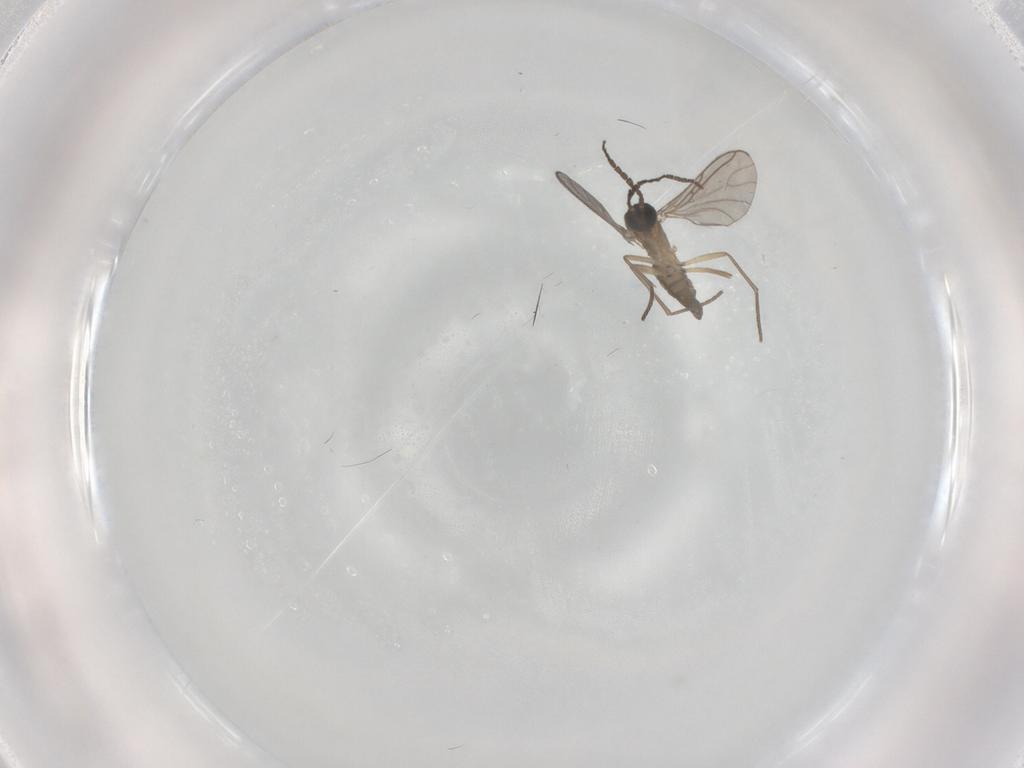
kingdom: Animalia
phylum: Arthropoda
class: Insecta
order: Diptera
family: Sciaridae
